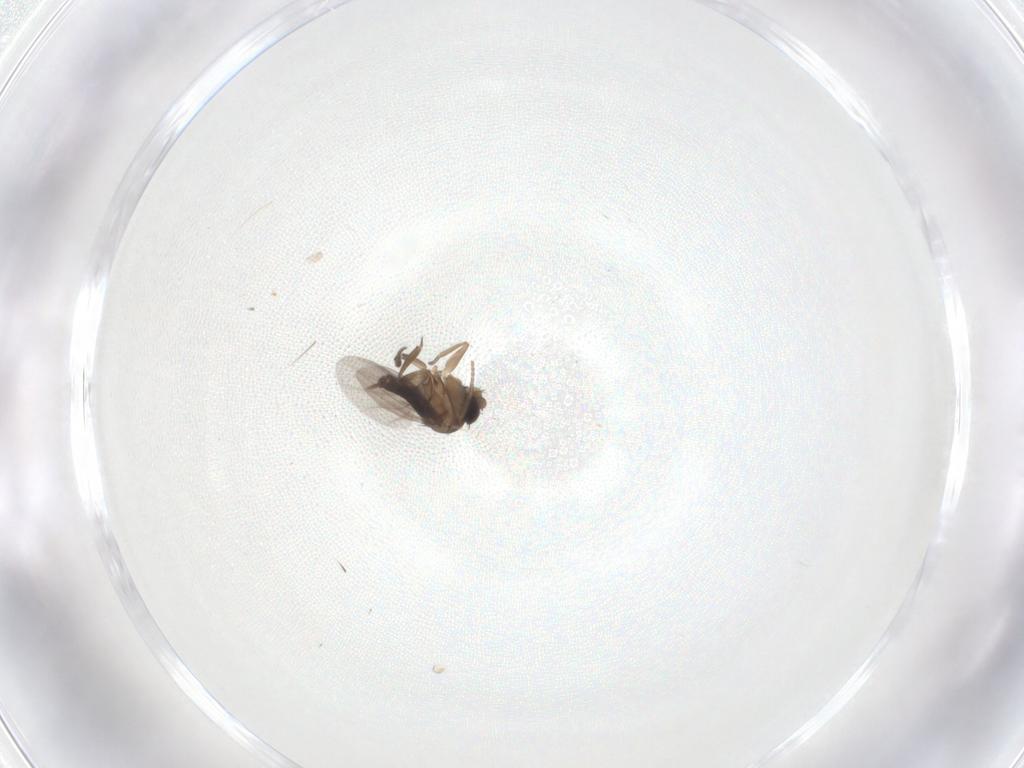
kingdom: Animalia
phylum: Arthropoda
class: Insecta
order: Diptera
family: Phoridae
